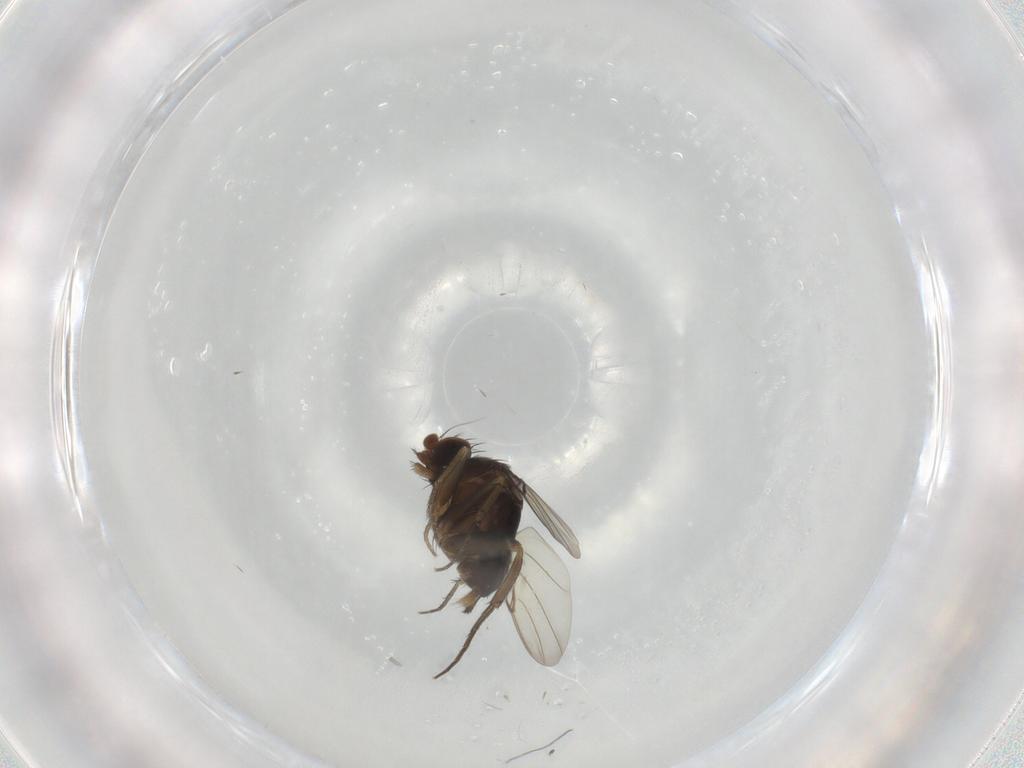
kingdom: Animalia
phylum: Arthropoda
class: Insecta
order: Diptera
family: Phoridae
